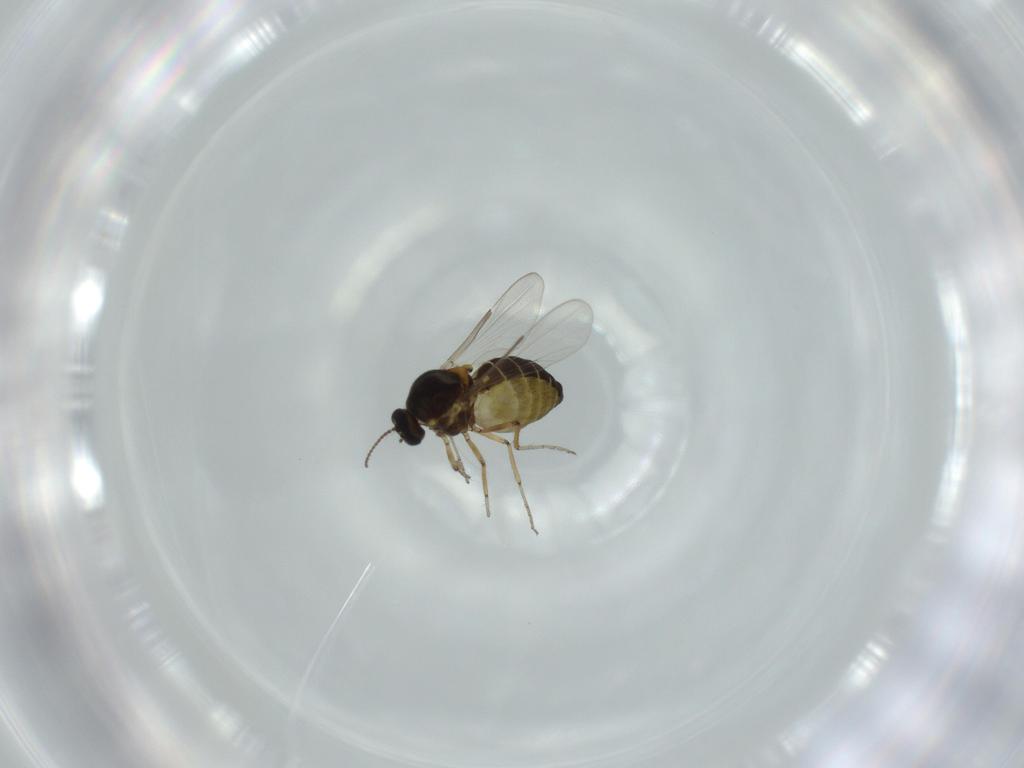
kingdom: Animalia
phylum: Arthropoda
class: Insecta
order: Diptera
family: Ceratopogonidae
